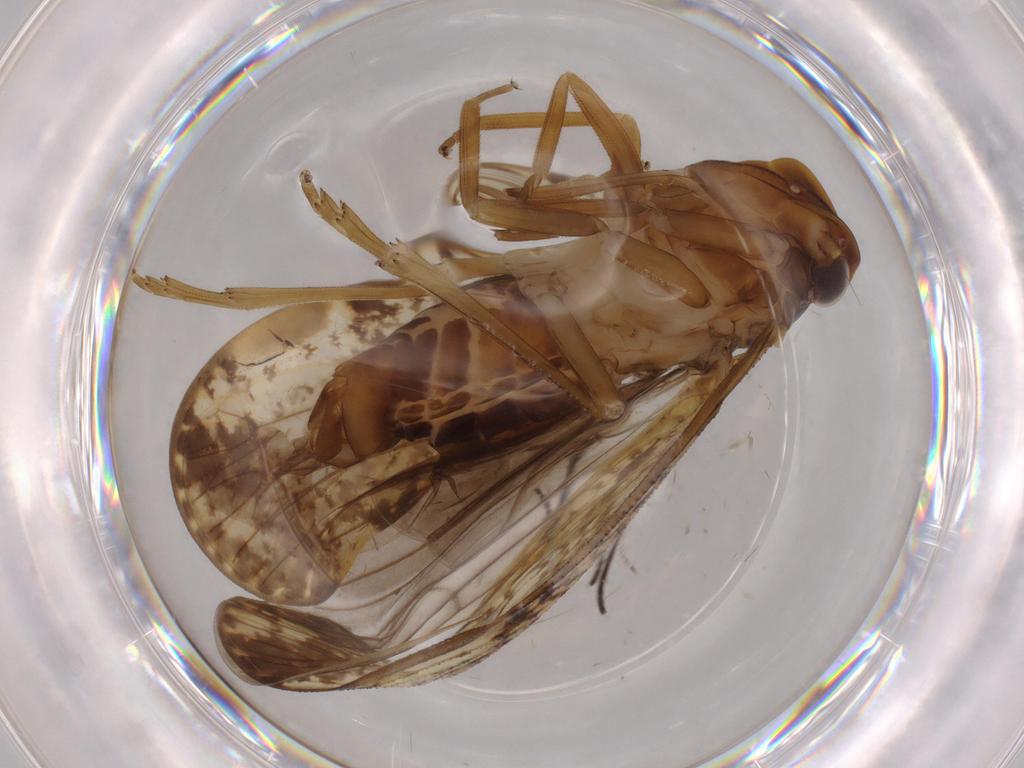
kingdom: Animalia
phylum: Arthropoda
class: Insecta
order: Hemiptera
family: Cixiidae
